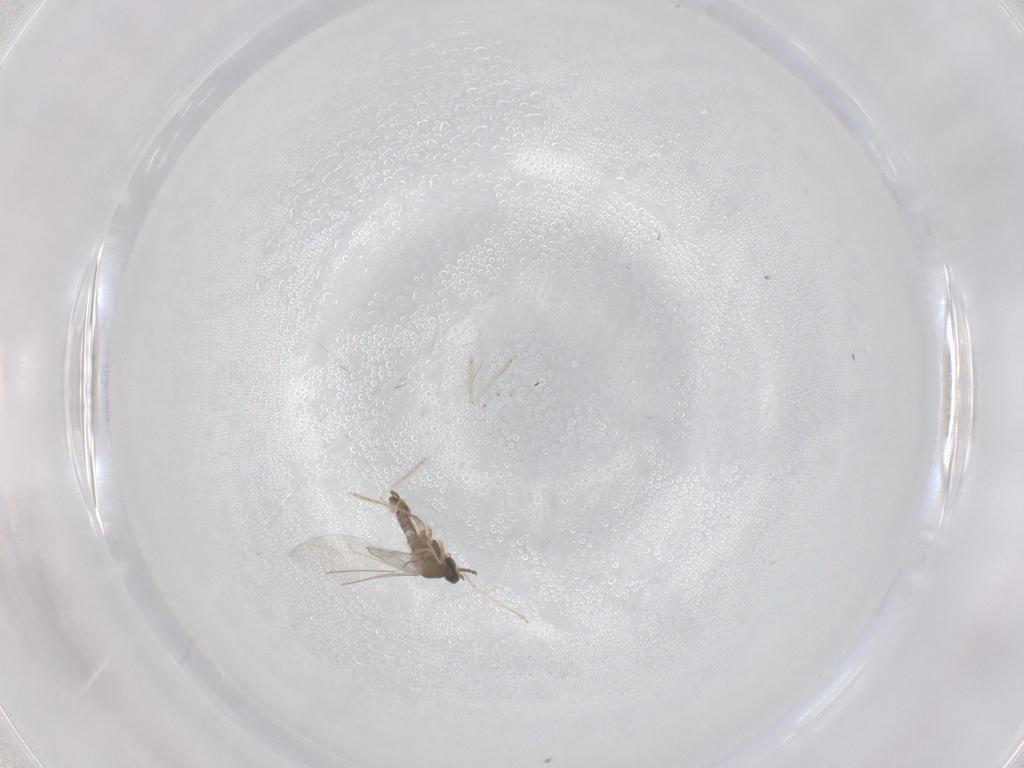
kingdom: Animalia
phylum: Arthropoda
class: Insecta
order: Diptera
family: Cecidomyiidae
